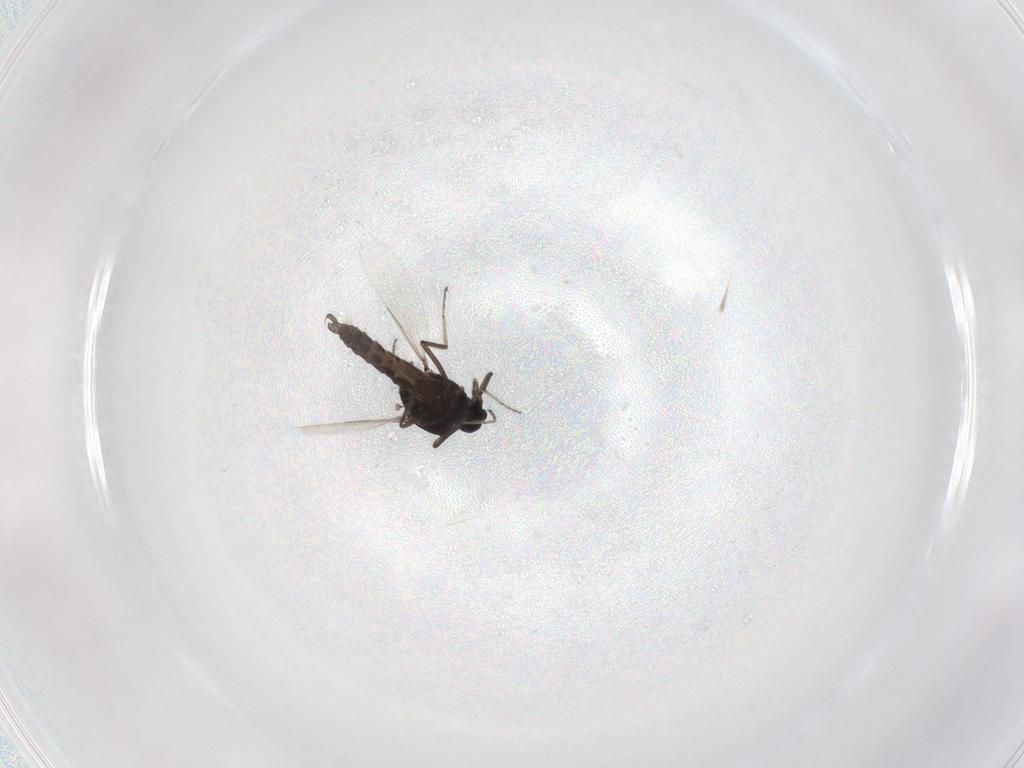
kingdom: Animalia
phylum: Arthropoda
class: Insecta
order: Diptera
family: Ceratopogonidae
